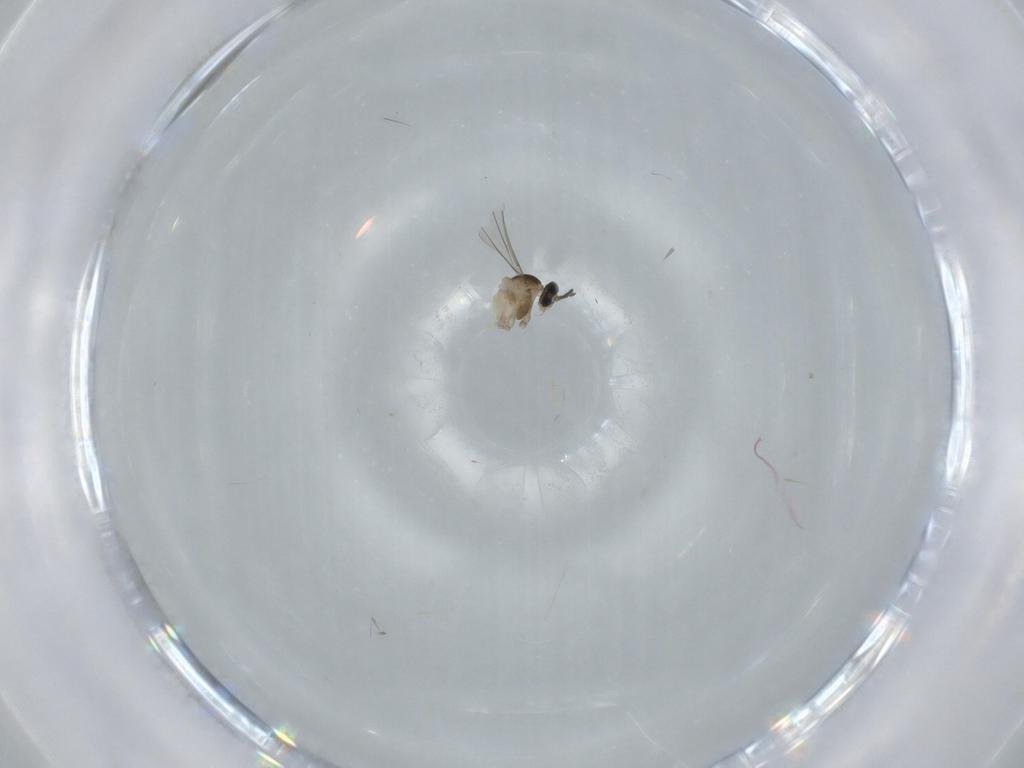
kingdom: Animalia
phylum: Arthropoda
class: Insecta
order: Diptera
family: Cecidomyiidae
